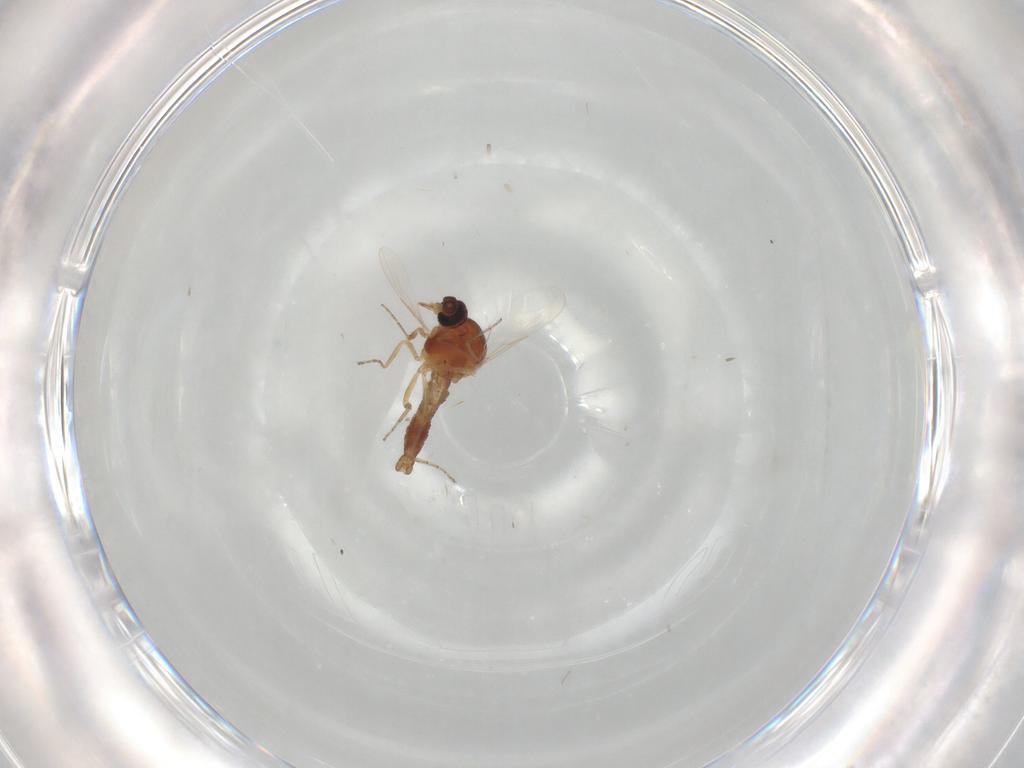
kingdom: Animalia
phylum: Arthropoda
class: Insecta
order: Diptera
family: Ceratopogonidae
